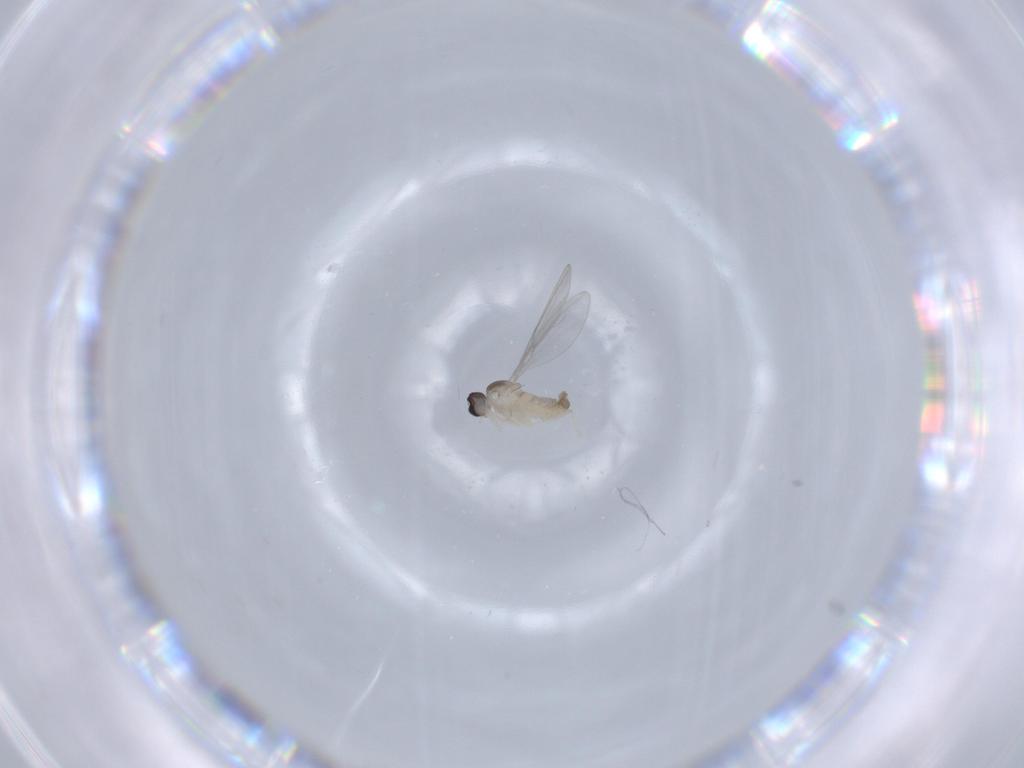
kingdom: Animalia
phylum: Arthropoda
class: Insecta
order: Diptera
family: Cecidomyiidae
